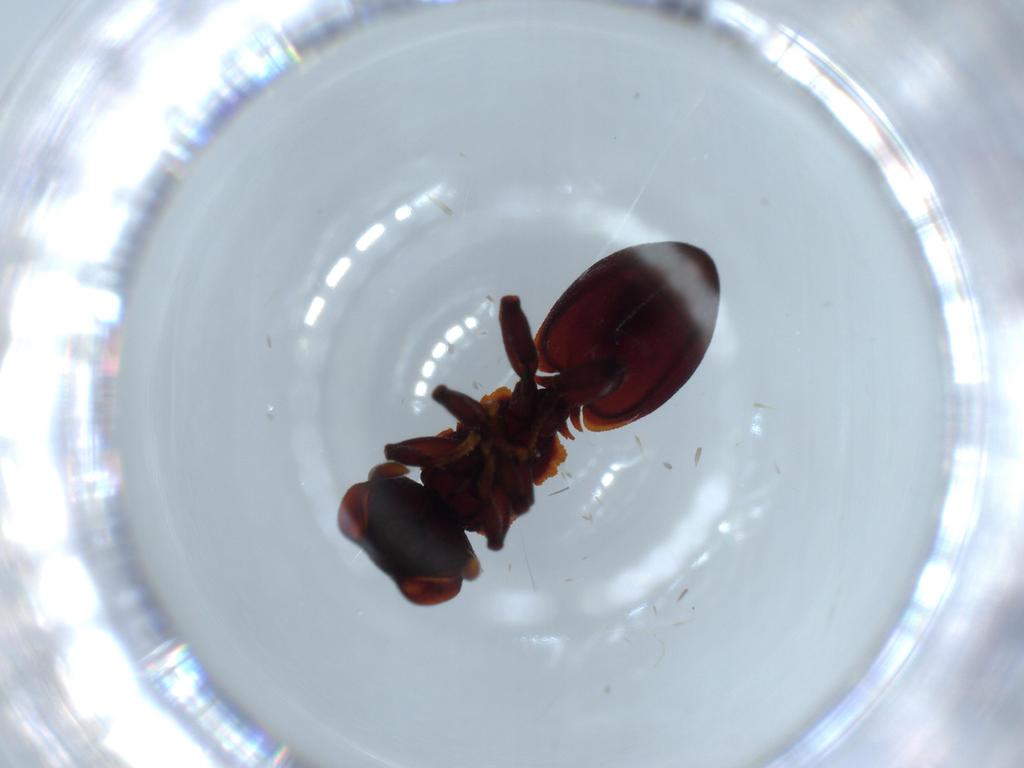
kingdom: Animalia
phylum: Arthropoda
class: Insecta
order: Hymenoptera
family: Formicidae
